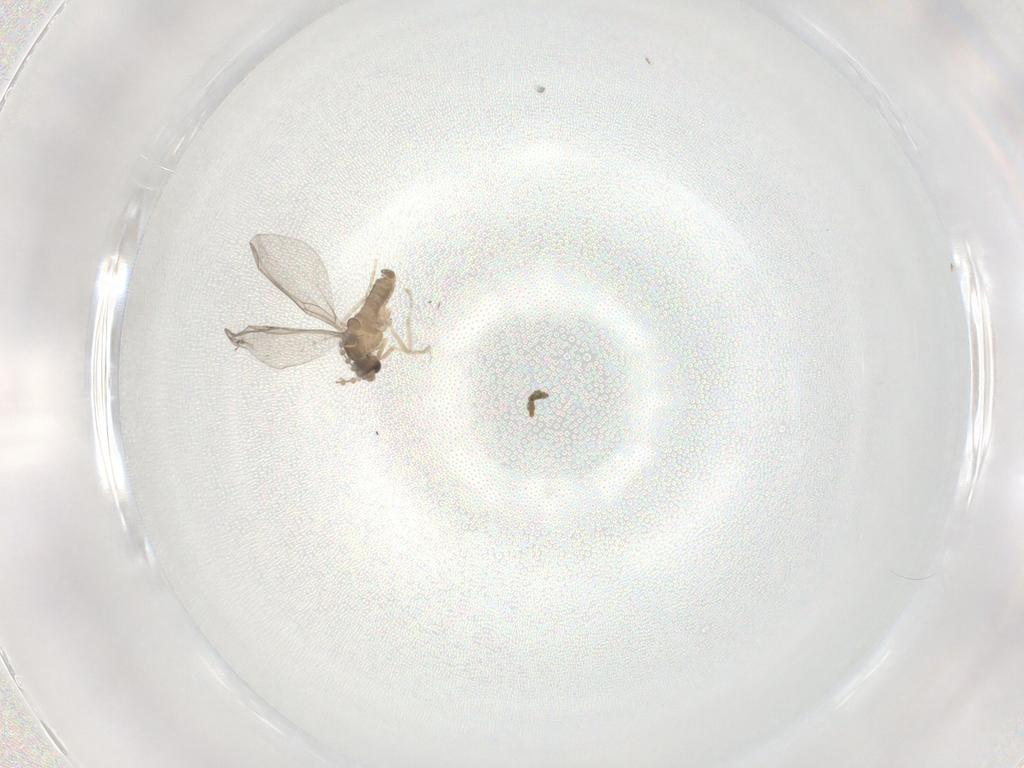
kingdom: Animalia
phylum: Arthropoda
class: Insecta
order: Diptera
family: Cecidomyiidae
